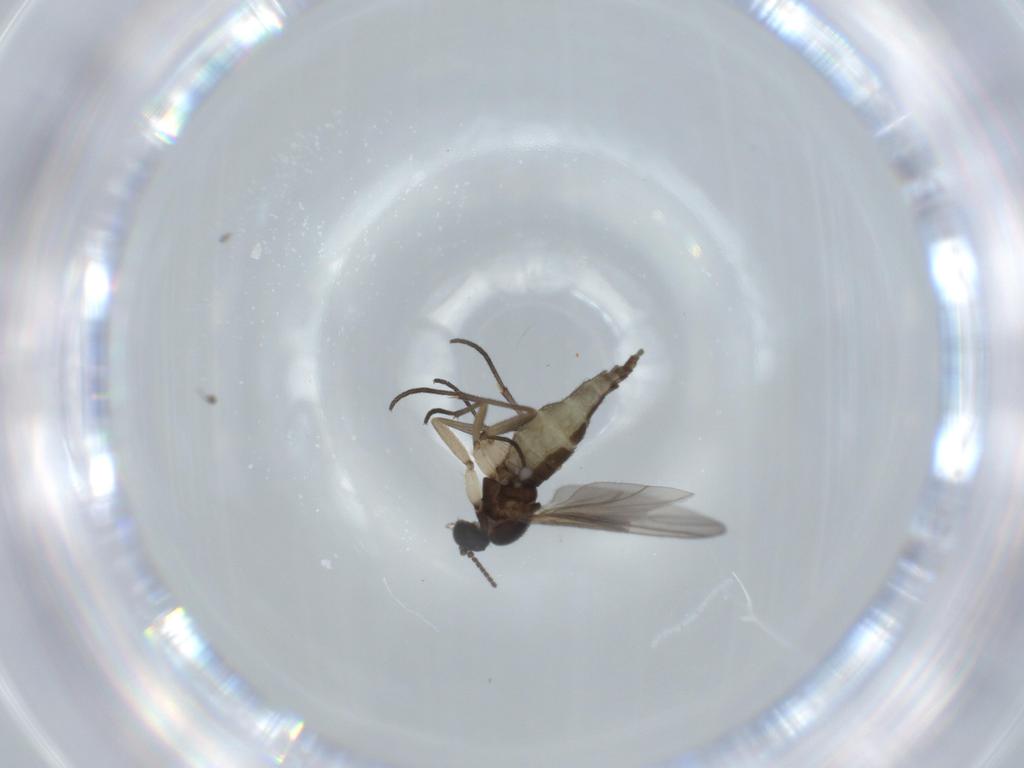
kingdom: Animalia
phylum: Arthropoda
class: Insecta
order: Diptera
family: Sciaridae
